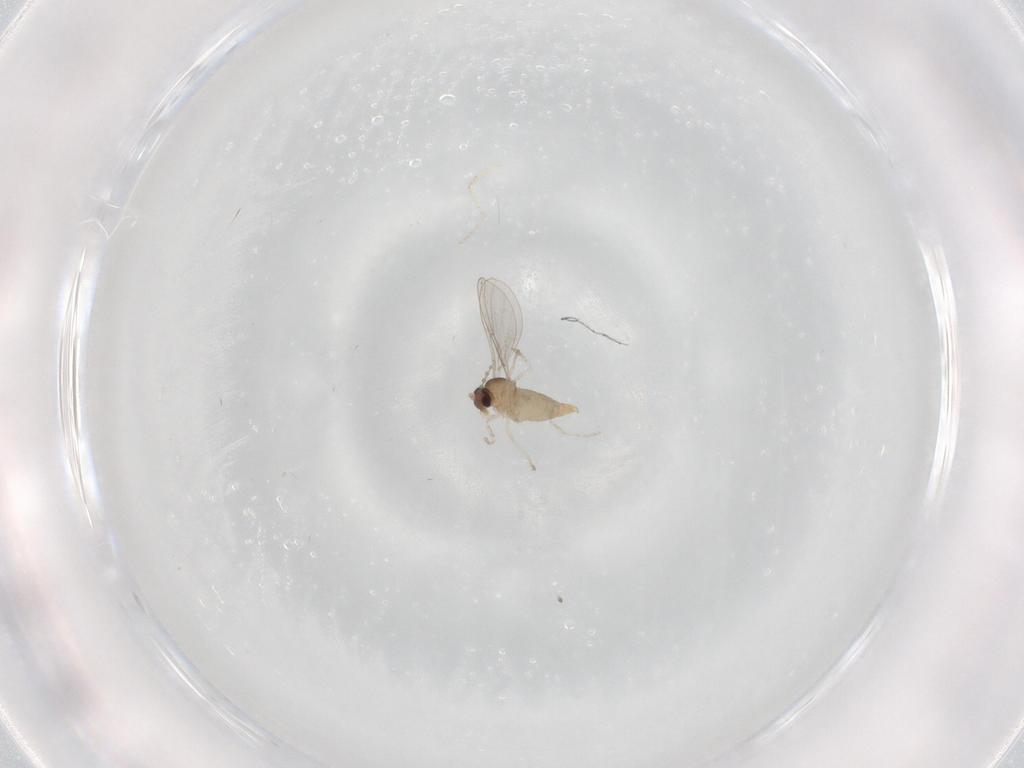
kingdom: Animalia
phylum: Arthropoda
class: Insecta
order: Diptera
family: Cecidomyiidae
